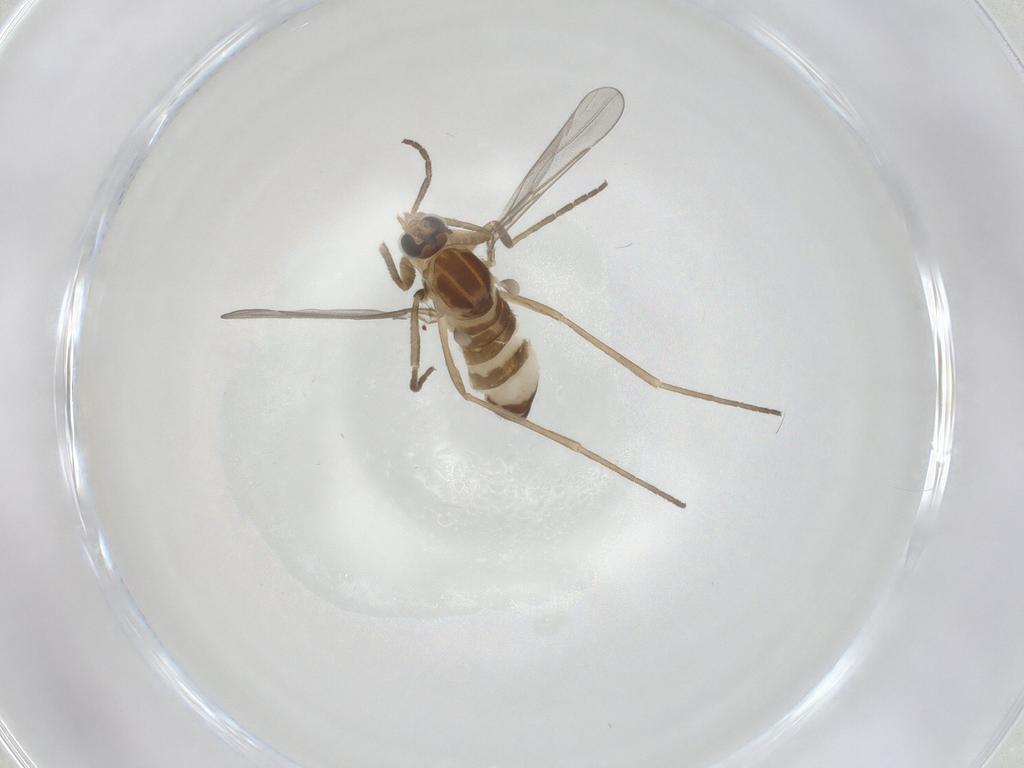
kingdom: Animalia
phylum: Arthropoda
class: Insecta
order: Diptera
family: Cecidomyiidae
